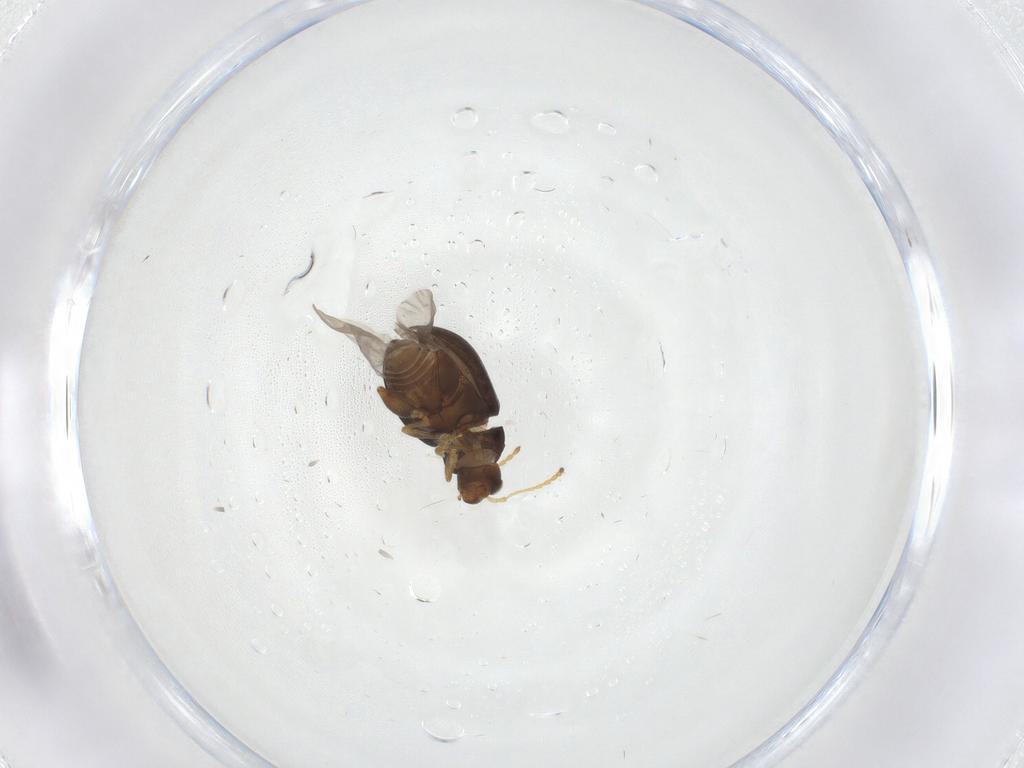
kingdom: Animalia
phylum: Arthropoda
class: Insecta
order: Coleoptera
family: Chrysomelidae
